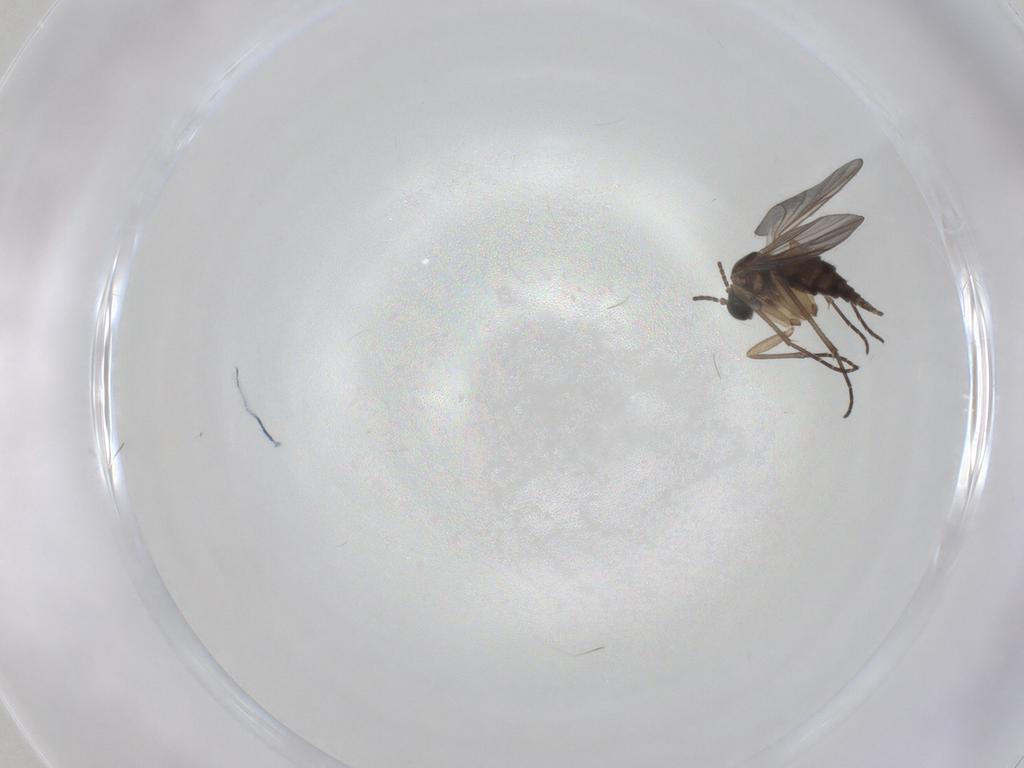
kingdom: Animalia
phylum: Arthropoda
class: Insecta
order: Diptera
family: Sciaridae
